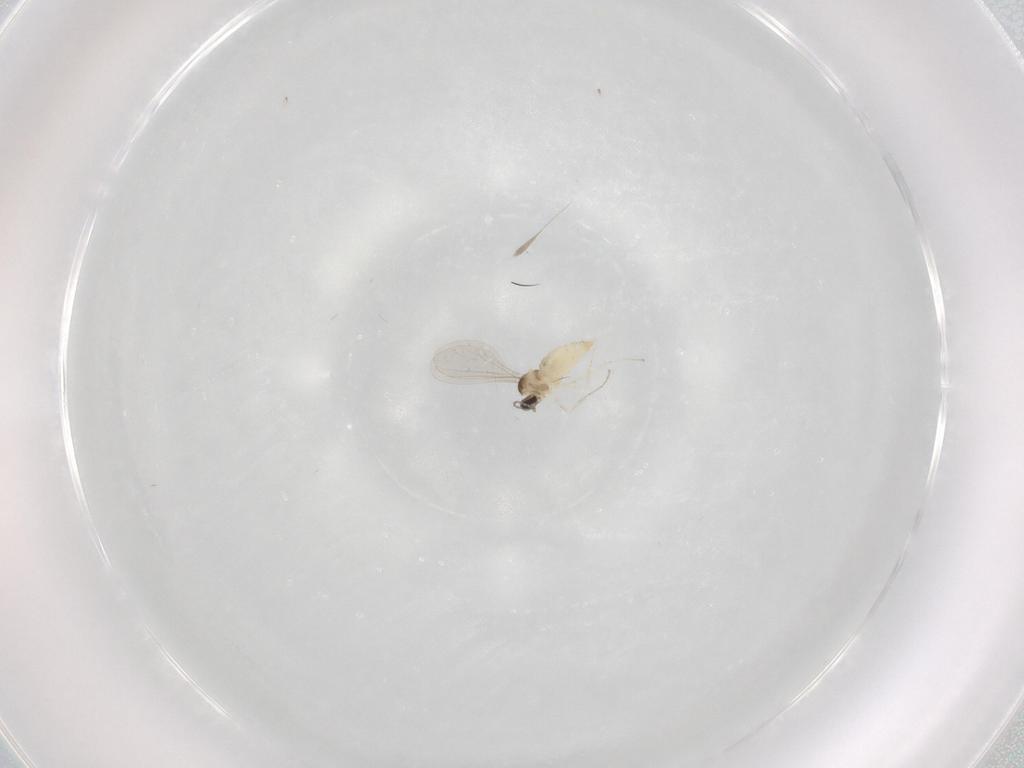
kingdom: Animalia
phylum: Arthropoda
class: Insecta
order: Diptera
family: Cecidomyiidae
